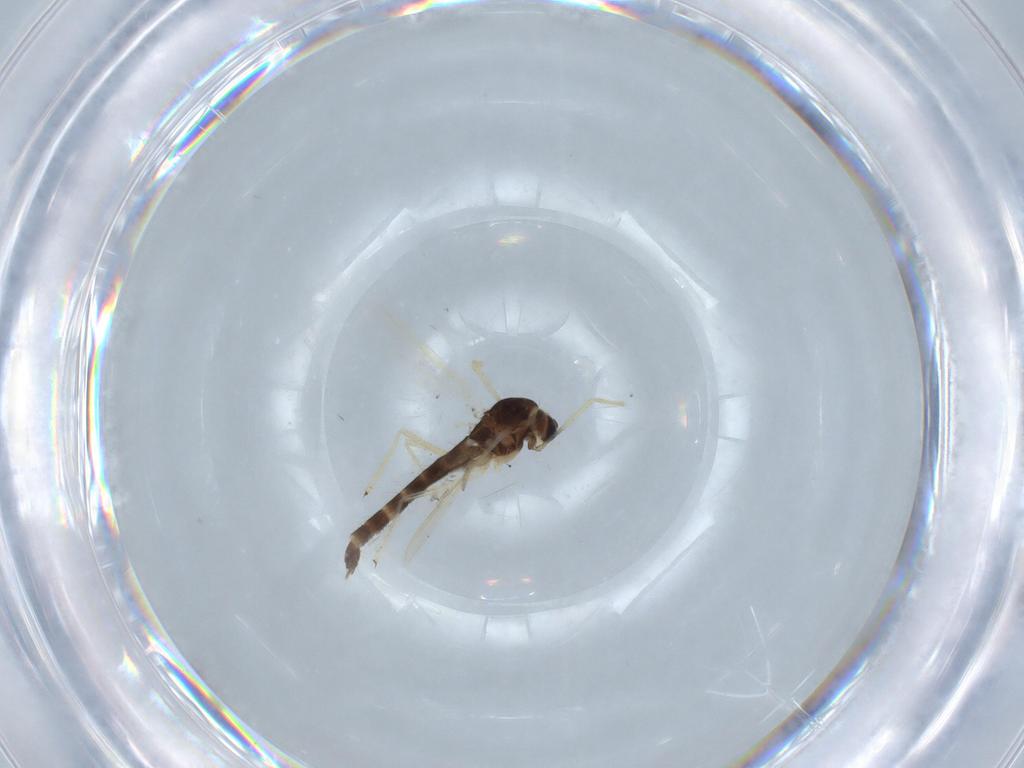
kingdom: Animalia
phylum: Arthropoda
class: Insecta
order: Diptera
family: Chironomidae
